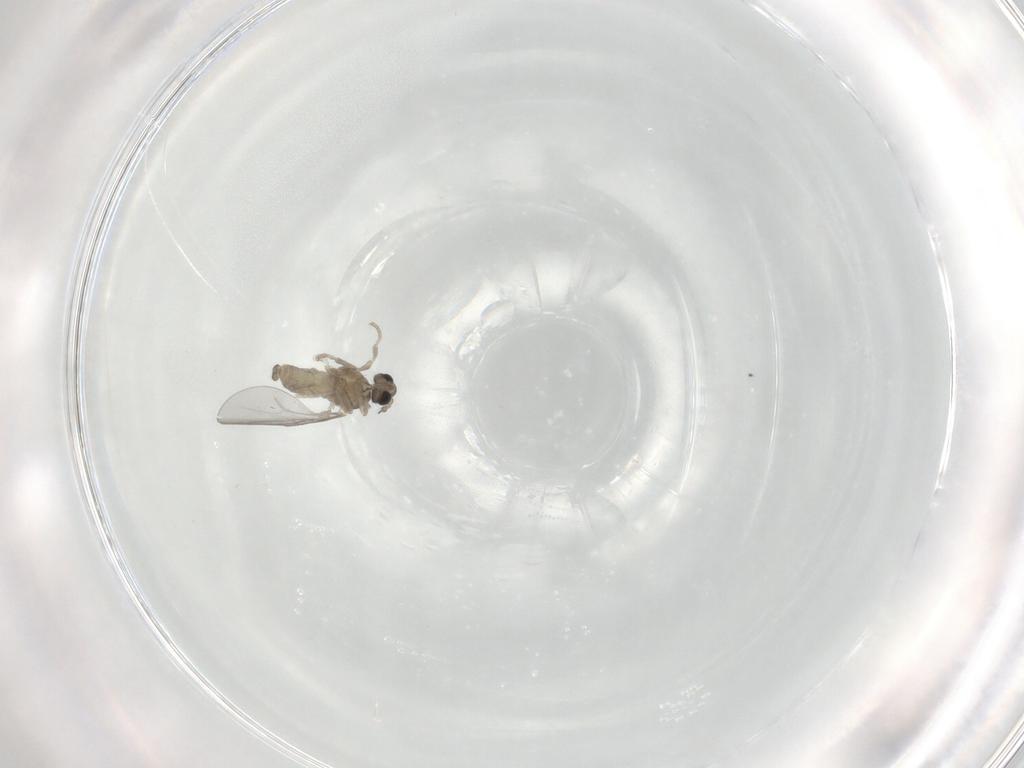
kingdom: Animalia
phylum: Arthropoda
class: Insecta
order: Diptera
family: Cecidomyiidae
